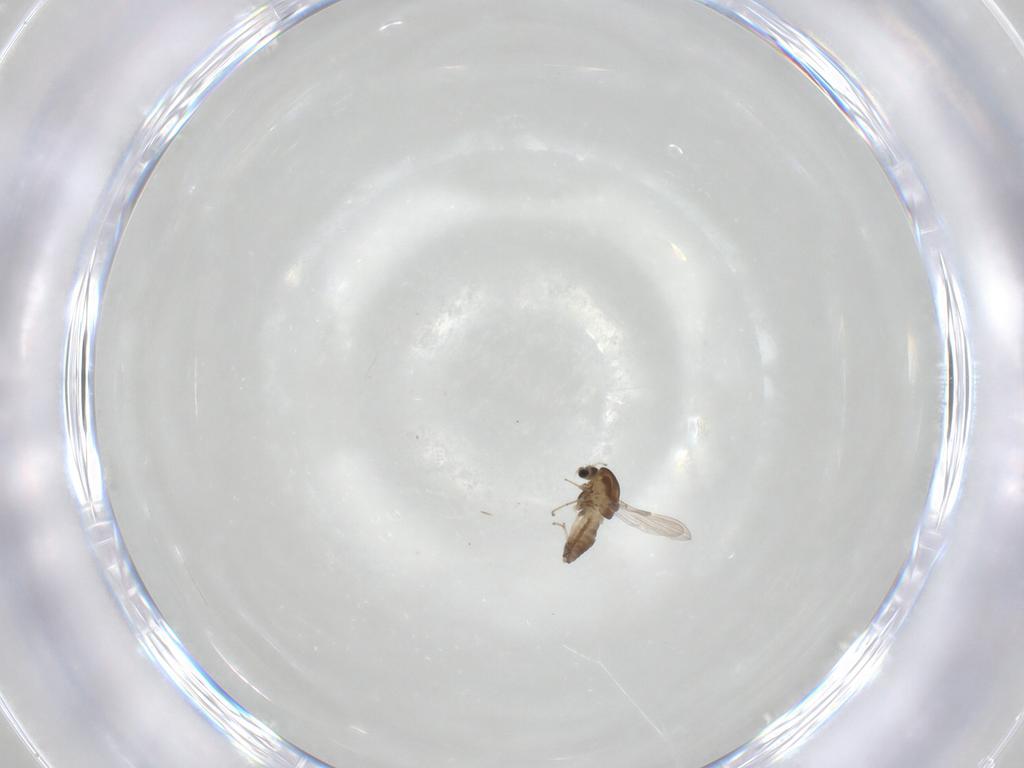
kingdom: Animalia
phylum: Arthropoda
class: Insecta
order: Diptera
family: Chironomidae
